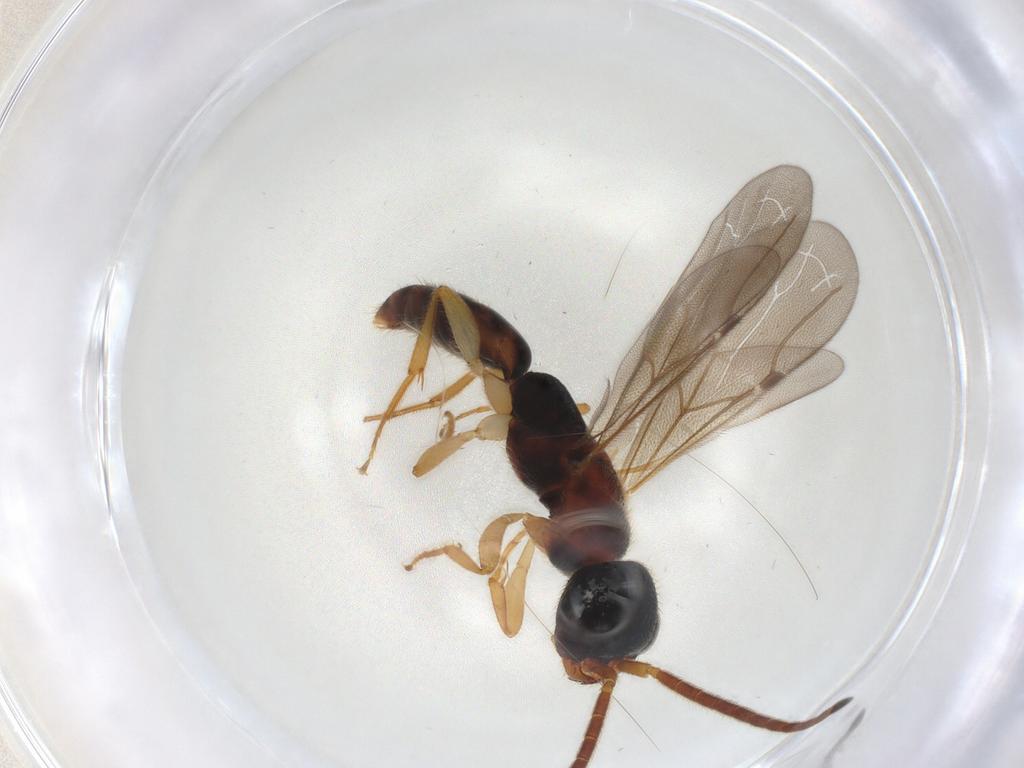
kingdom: Animalia
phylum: Arthropoda
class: Insecta
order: Hymenoptera
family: Bethylidae
